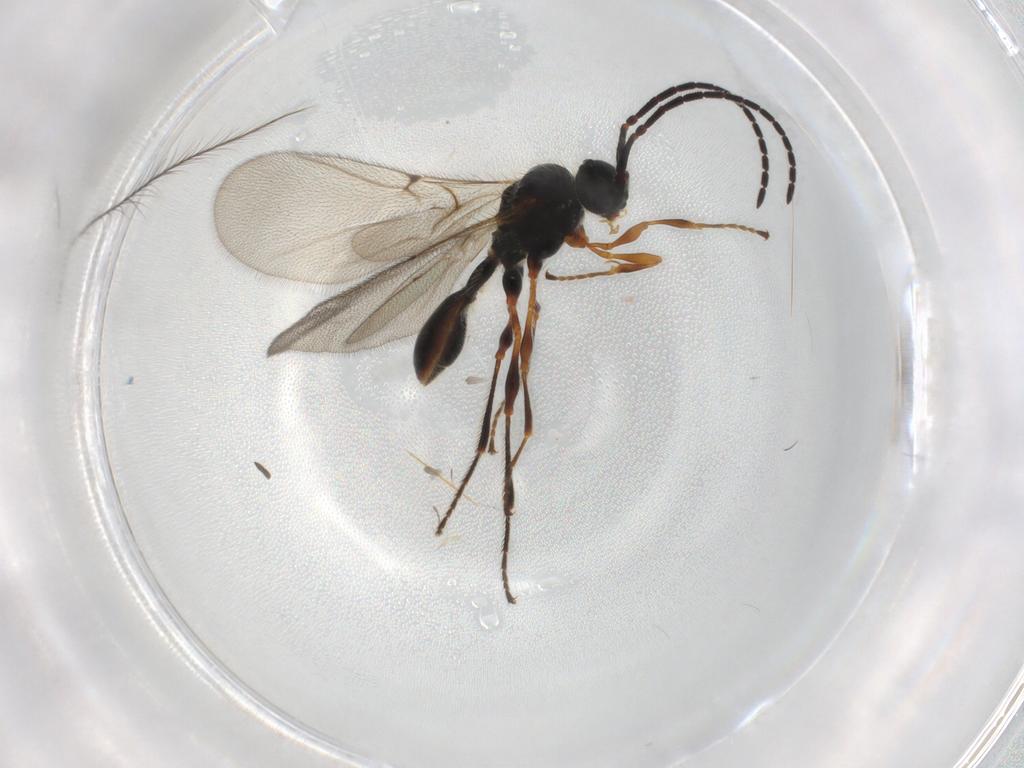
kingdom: Animalia
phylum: Arthropoda
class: Insecta
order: Hymenoptera
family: Diapriidae
